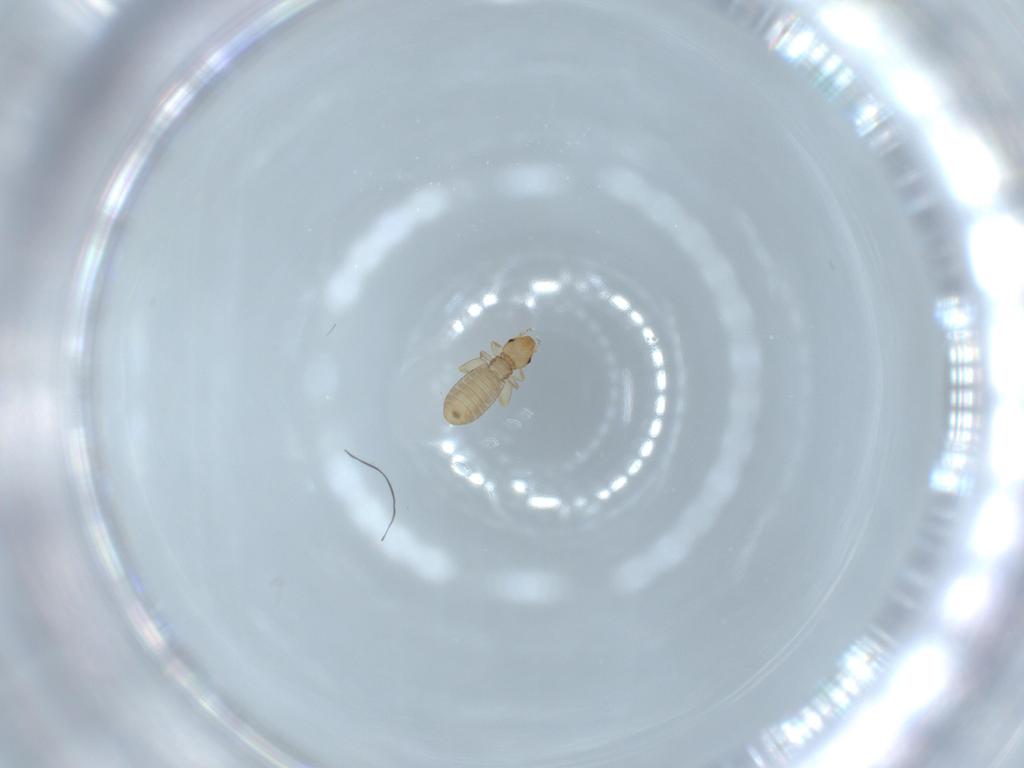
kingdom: Animalia
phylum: Arthropoda
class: Insecta
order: Psocodea
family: Liposcelididae
